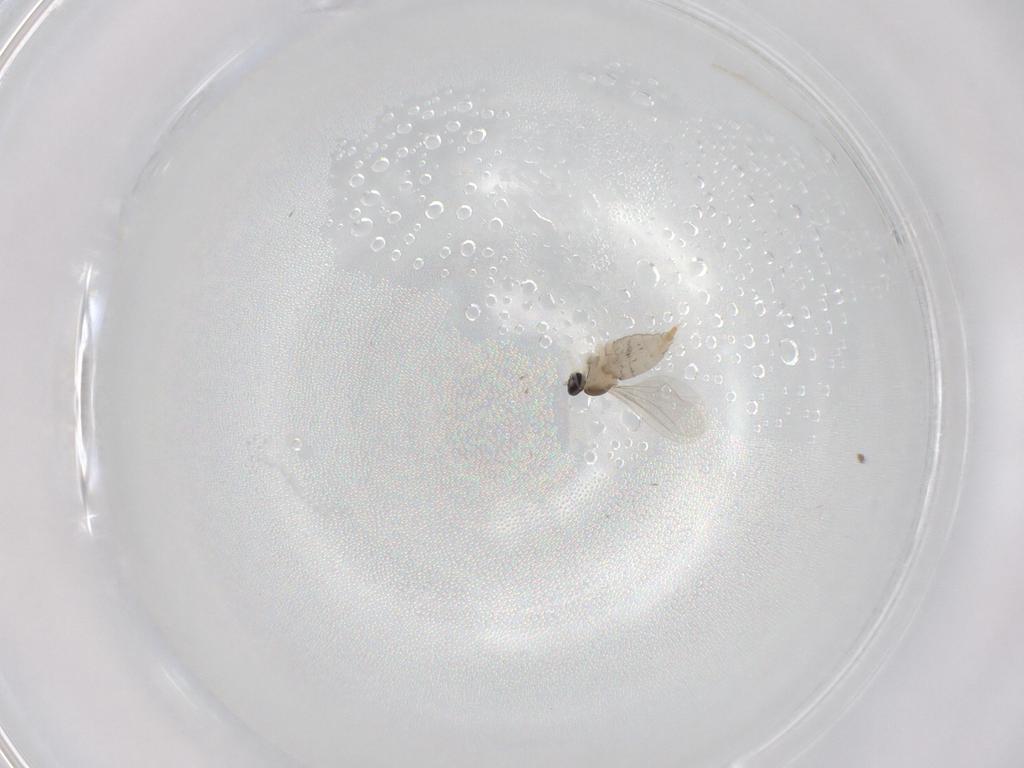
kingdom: Animalia
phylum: Arthropoda
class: Insecta
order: Diptera
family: Cecidomyiidae
